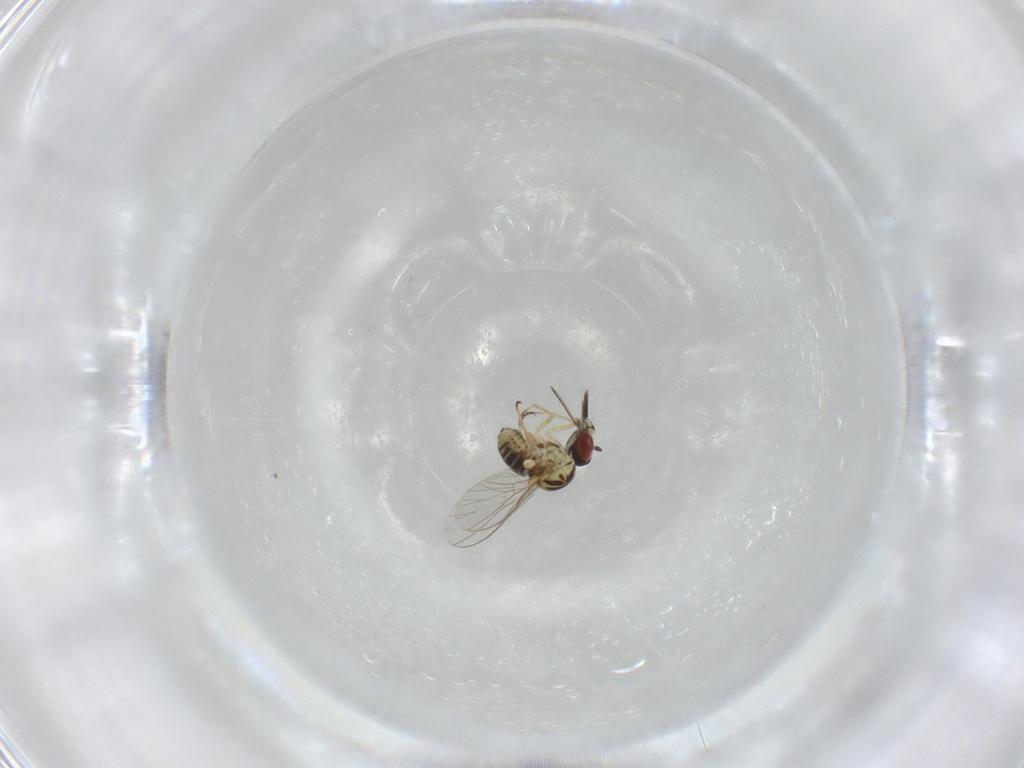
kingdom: Animalia
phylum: Arthropoda
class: Insecta
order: Diptera
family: Bombyliidae
